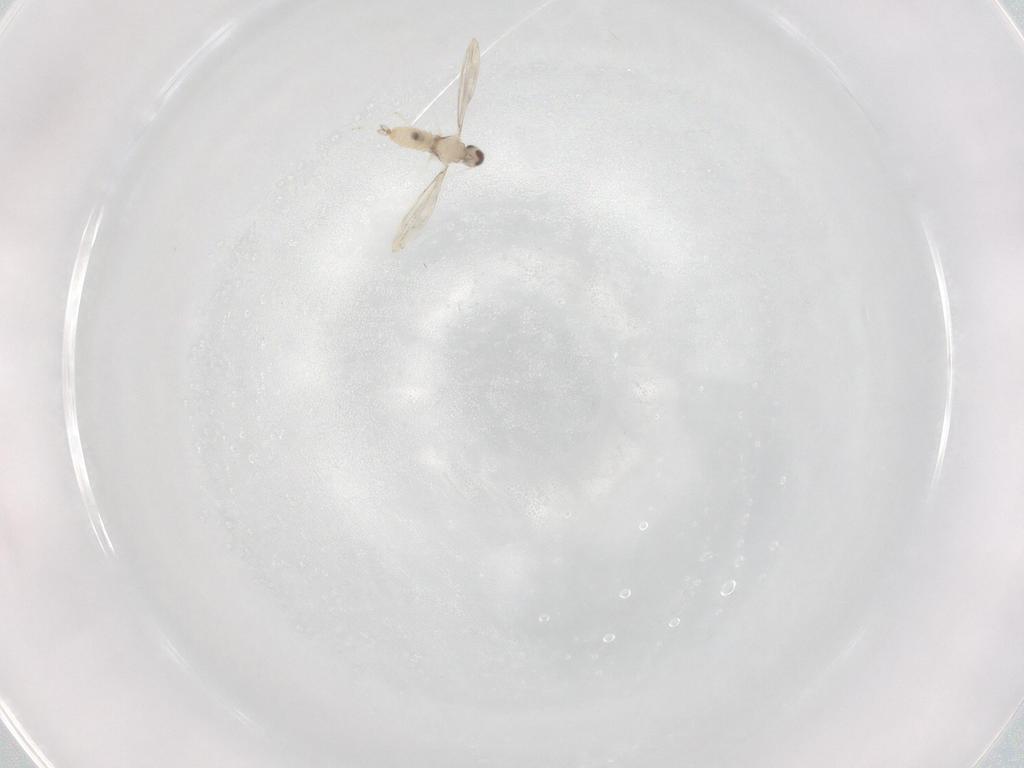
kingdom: Animalia
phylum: Arthropoda
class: Insecta
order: Diptera
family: Cecidomyiidae
